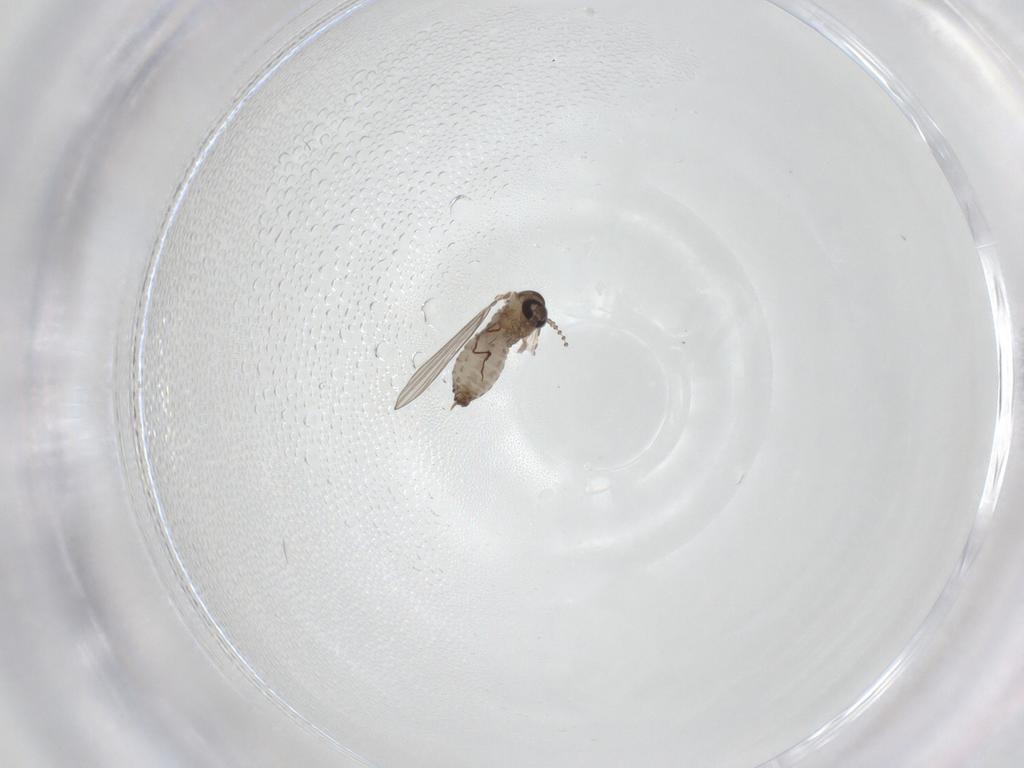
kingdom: Animalia
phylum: Arthropoda
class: Insecta
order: Diptera
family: Psychodidae
